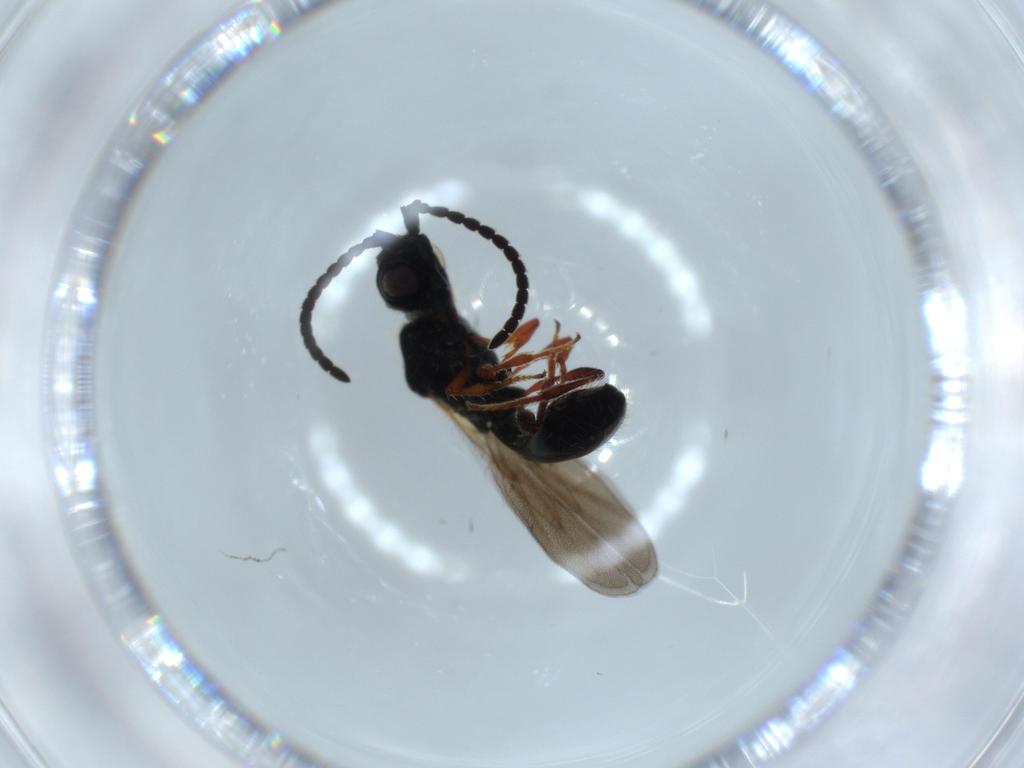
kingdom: Animalia
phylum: Arthropoda
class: Insecta
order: Hymenoptera
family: Diapriidae
